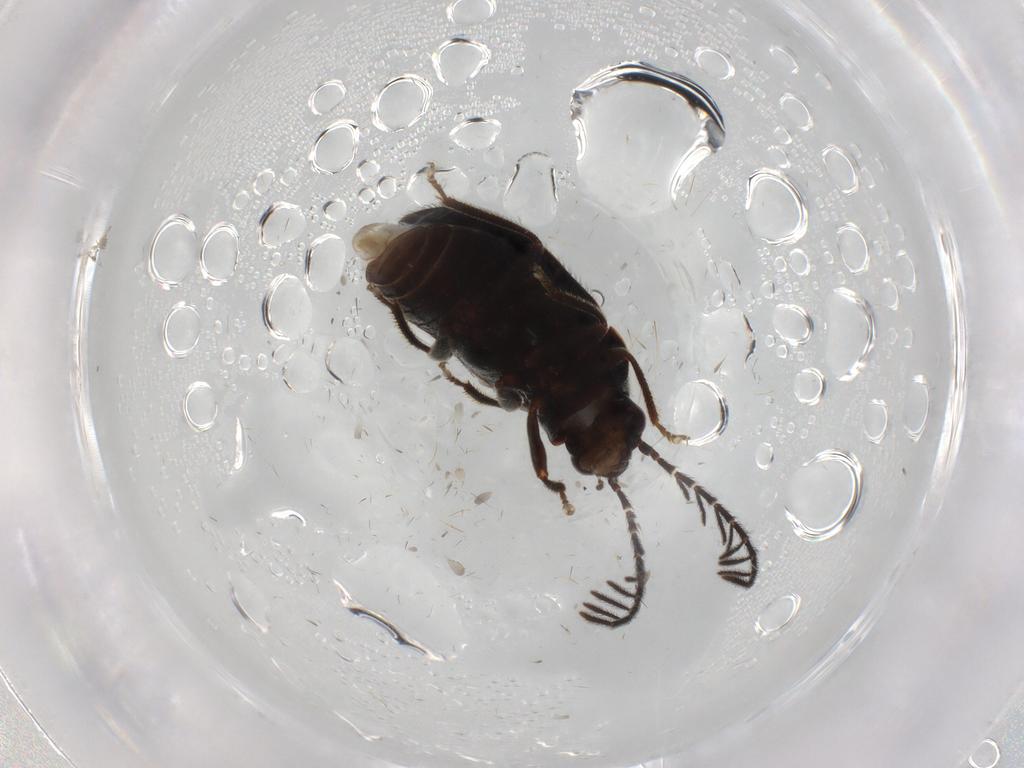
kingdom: Animalia
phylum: Arthropoda
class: Insecta
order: Coleoptera
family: Ptilodactylidae
